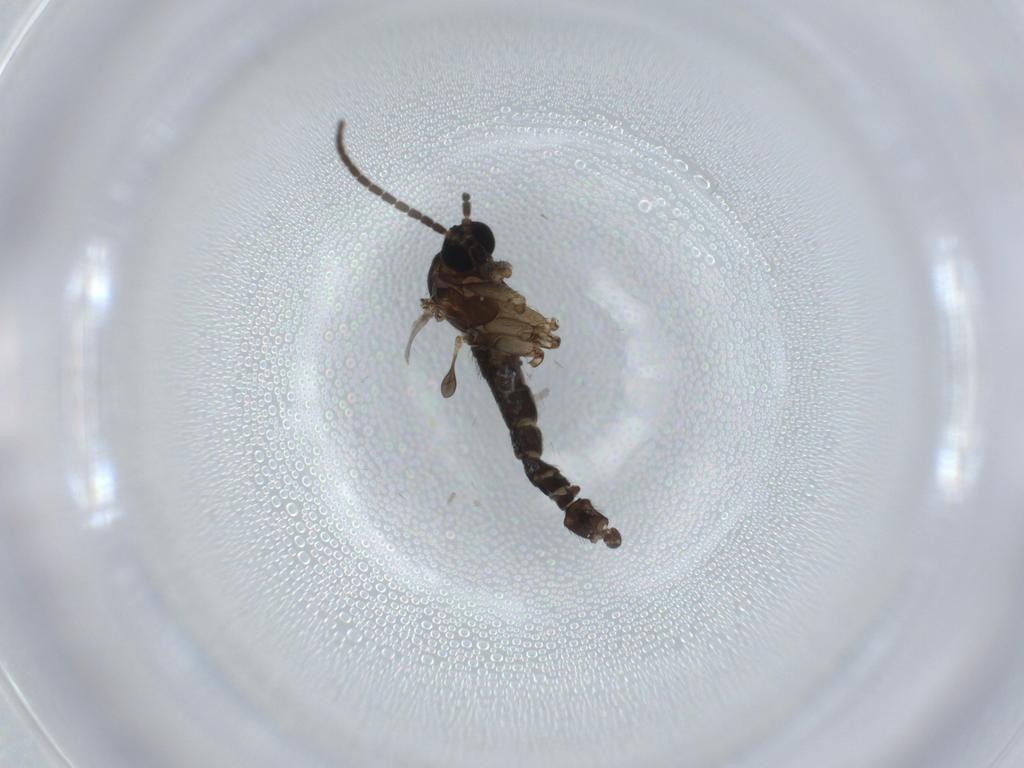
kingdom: Animalia
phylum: Arthropoda
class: Insecta
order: Diptera
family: Sciaridae
